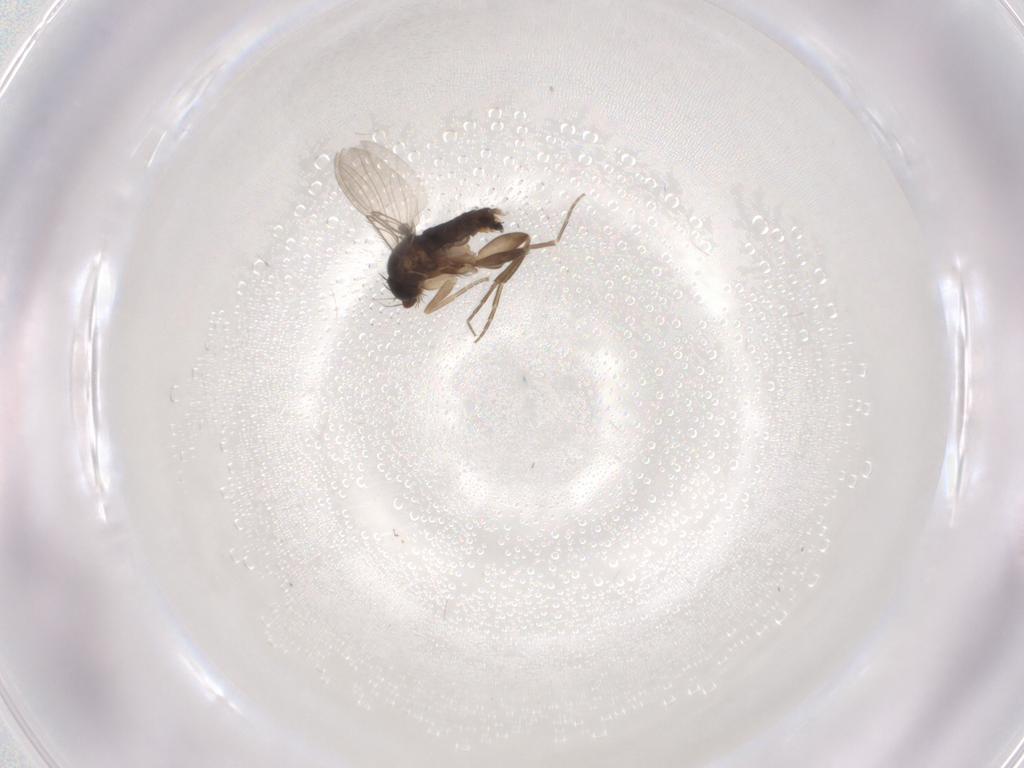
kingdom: Animalia
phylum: Arthropoda
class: Insecta
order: Diptera
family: Sciaridae
